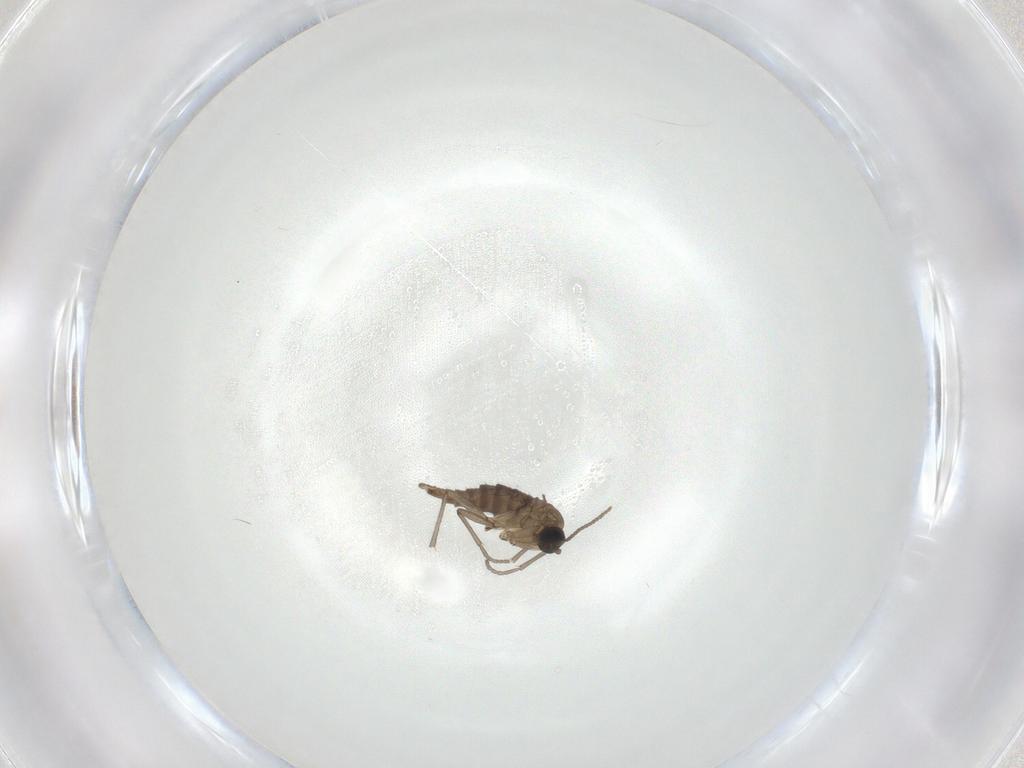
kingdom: Animalia
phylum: Arthropoda
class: Insecta
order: Diptera
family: Sciaridae
